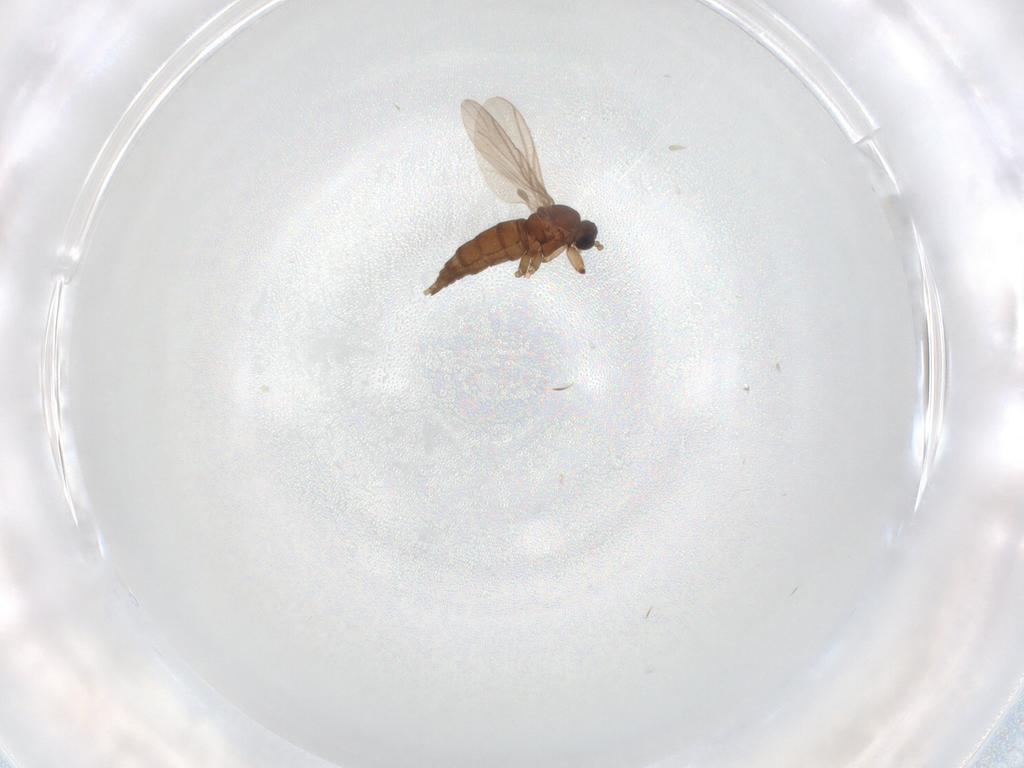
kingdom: Animalia
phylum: Arthropoda
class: Insecta
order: Diptera
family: Sciaridae
